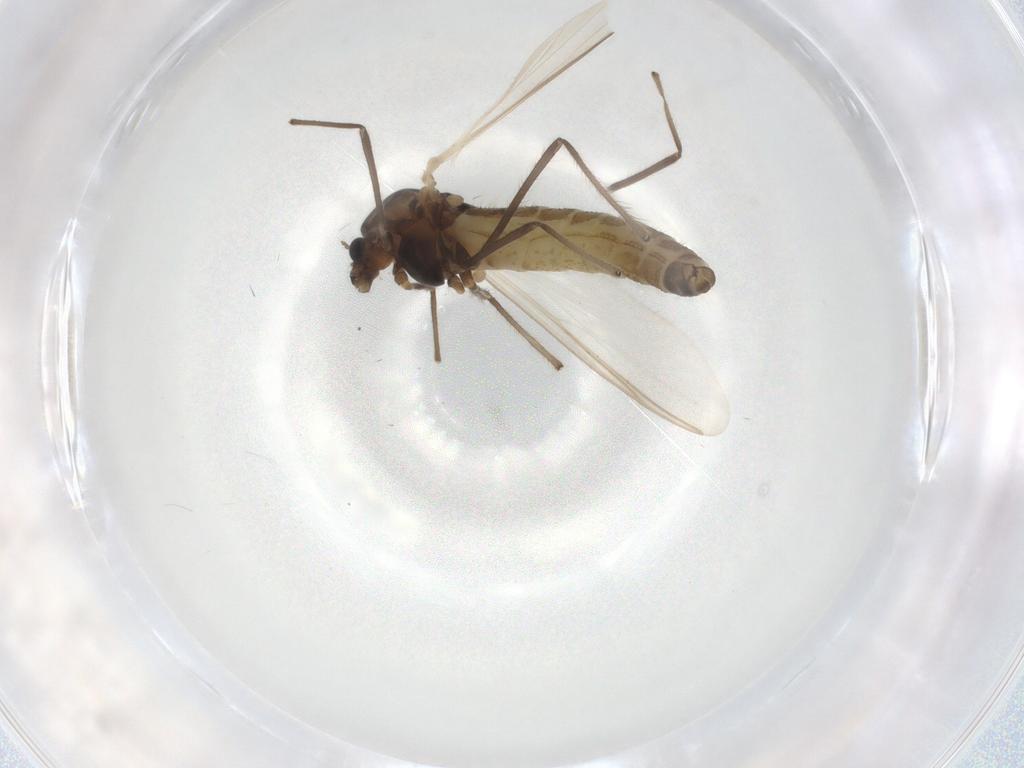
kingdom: Animalia
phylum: Arthropoda
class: Insecta
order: Diptera
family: Chironomidae
